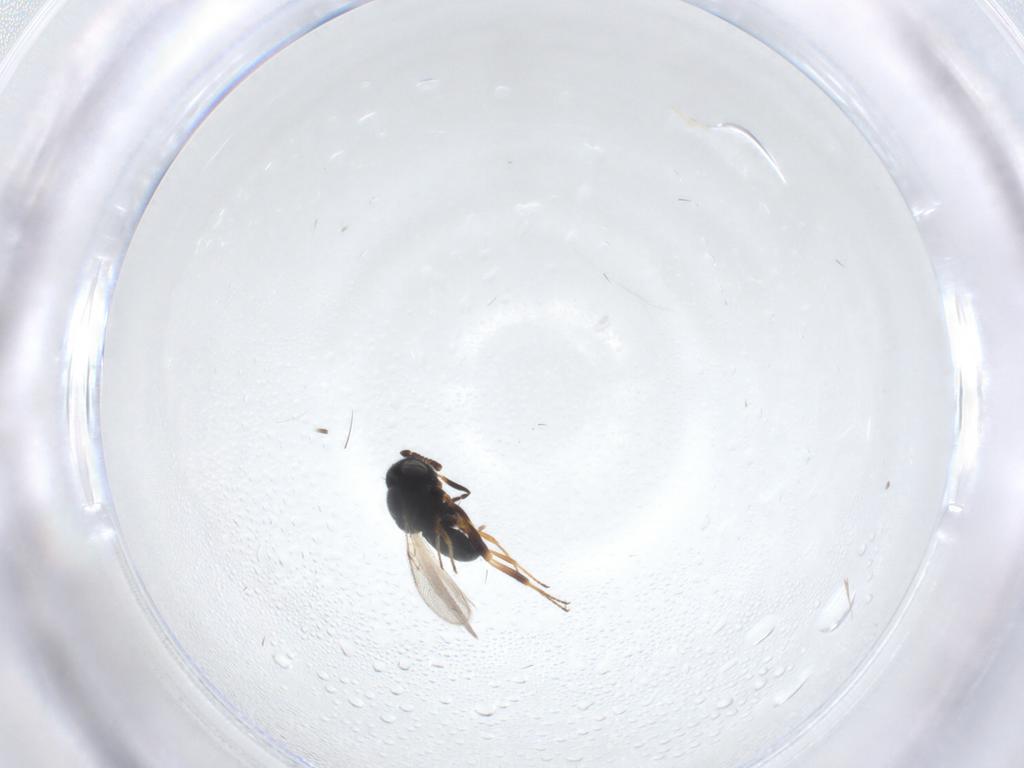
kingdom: Animalia
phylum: Arthropoda
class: Insecta
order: Hymenoptera
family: Scelionidae
